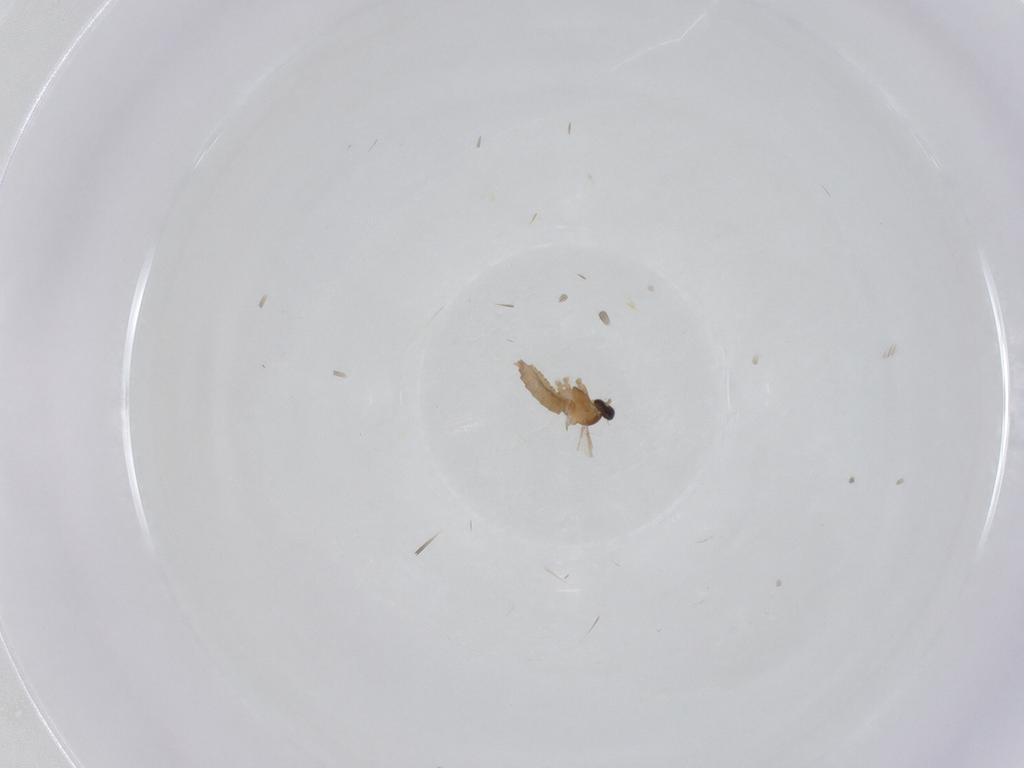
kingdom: Animalia
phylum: Arthropoda
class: Insecta
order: Diptera
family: Cecidomyiidae
